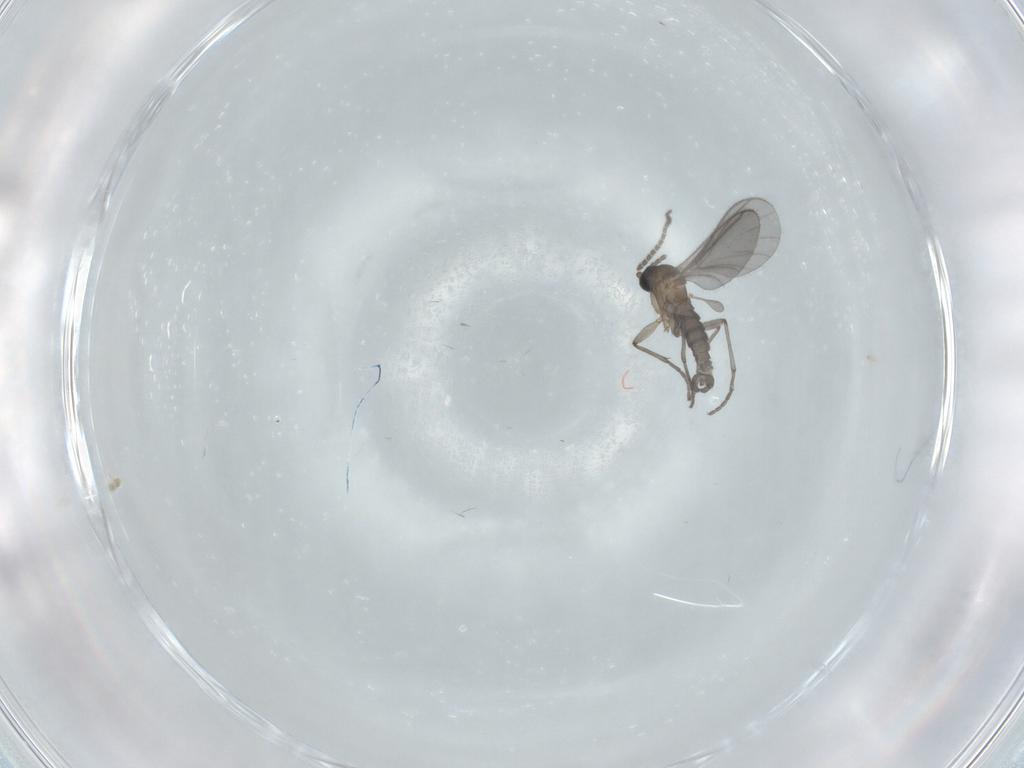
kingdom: Animalia
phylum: Arthropoda
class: Insecta
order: Diptera
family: Sciaridae
